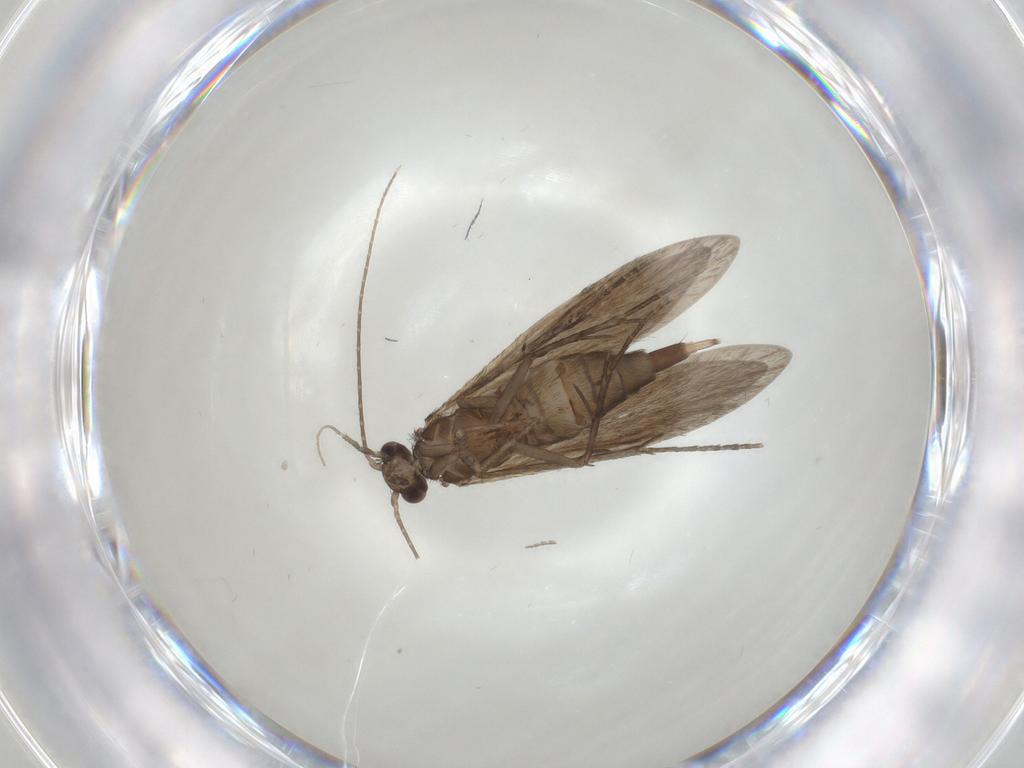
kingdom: Animalia
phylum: Arthropoda
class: Insecta
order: Trichoptera
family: Xiphocentronidae
